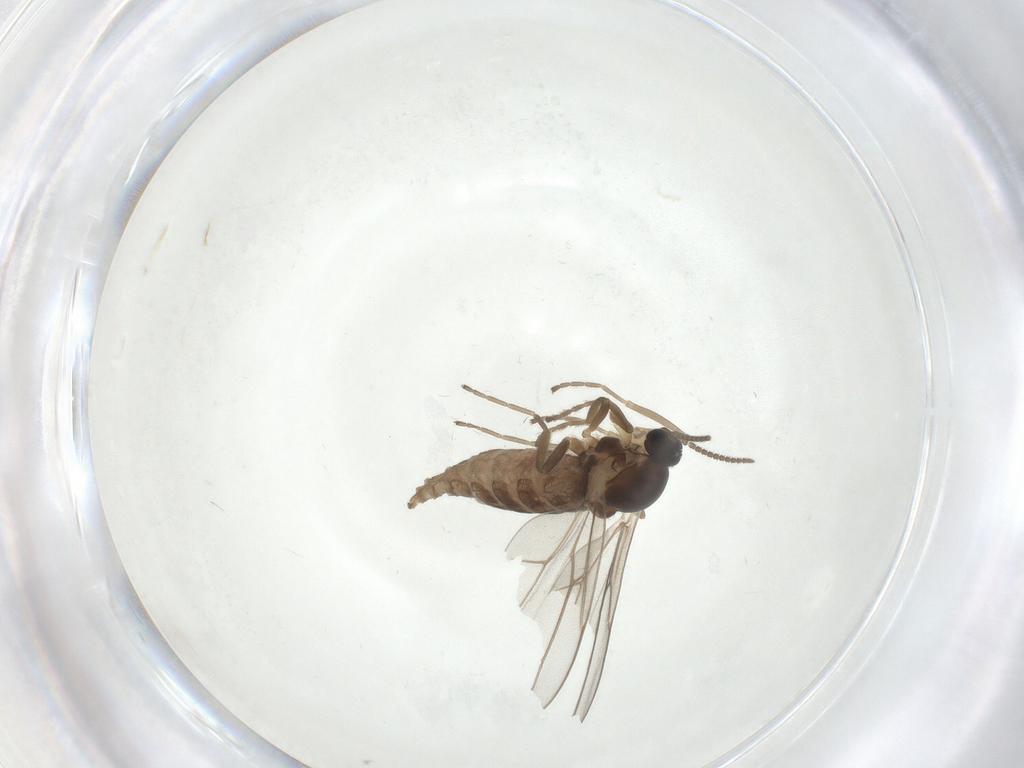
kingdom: Animalia
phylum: Arthropoda
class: Insecta
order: Diptera
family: Cecidomyiidae
